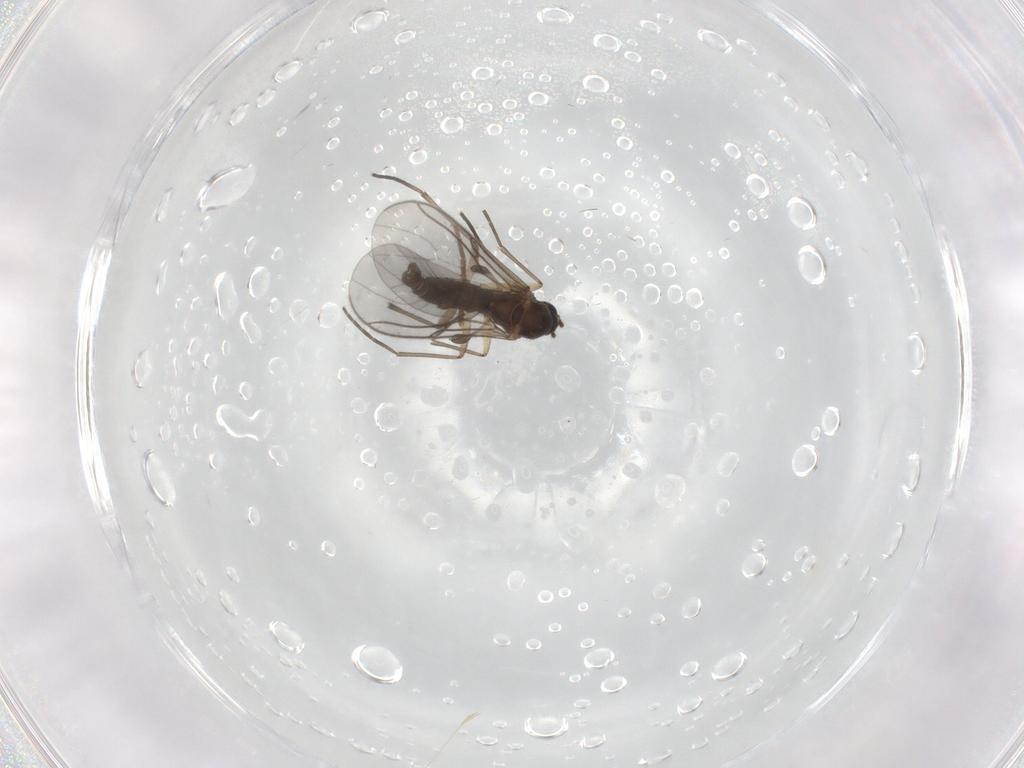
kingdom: Animalia
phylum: Arthropoda
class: Insecta
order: Diptera
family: Sciaridae
